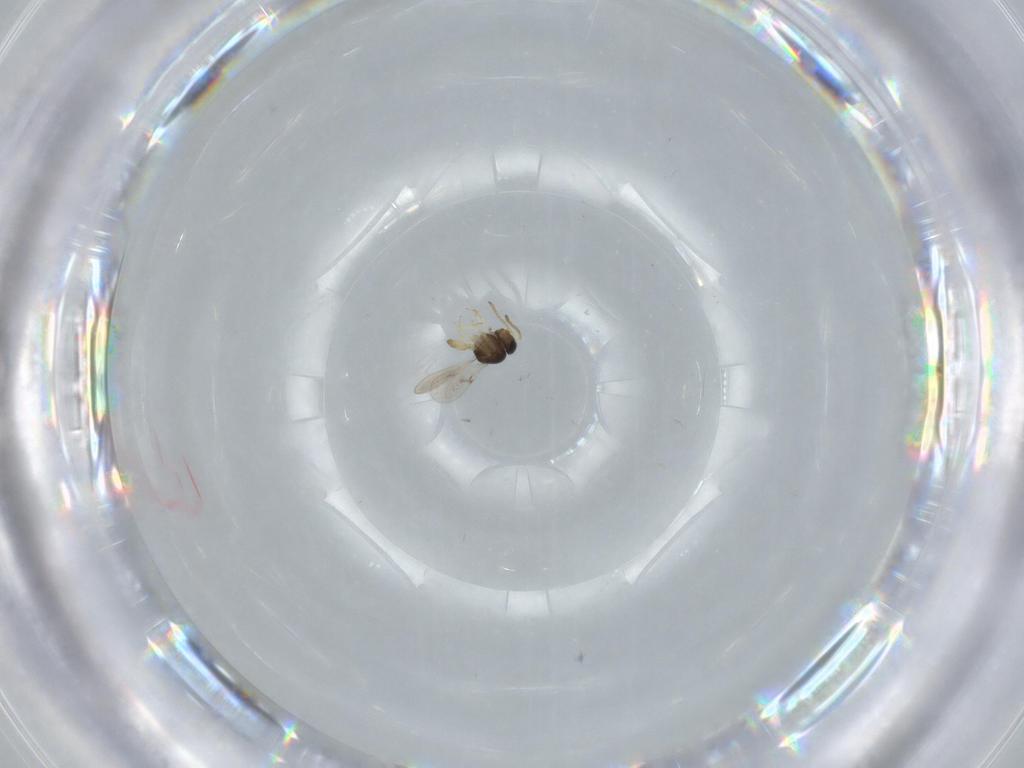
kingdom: Animalia
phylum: Arthropoda
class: Insecta
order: Hymenoptera
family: Scelionidae
